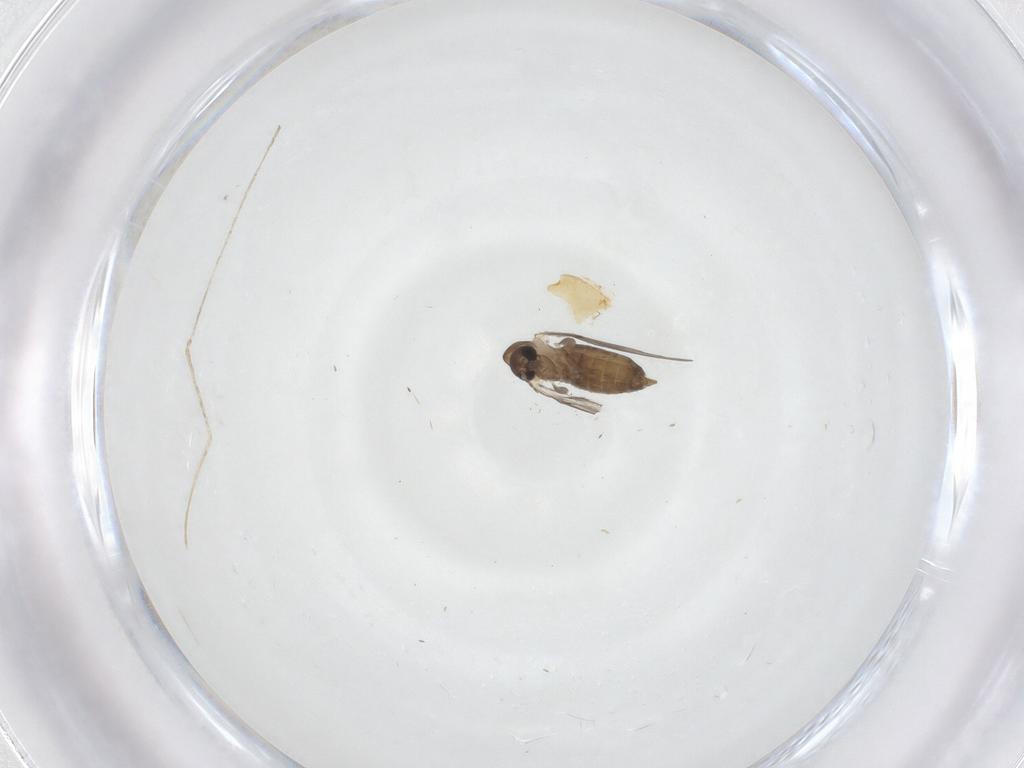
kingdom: Animalia
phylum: Arthropoda
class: Insecta
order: Diptera
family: Cecidomyiidae
